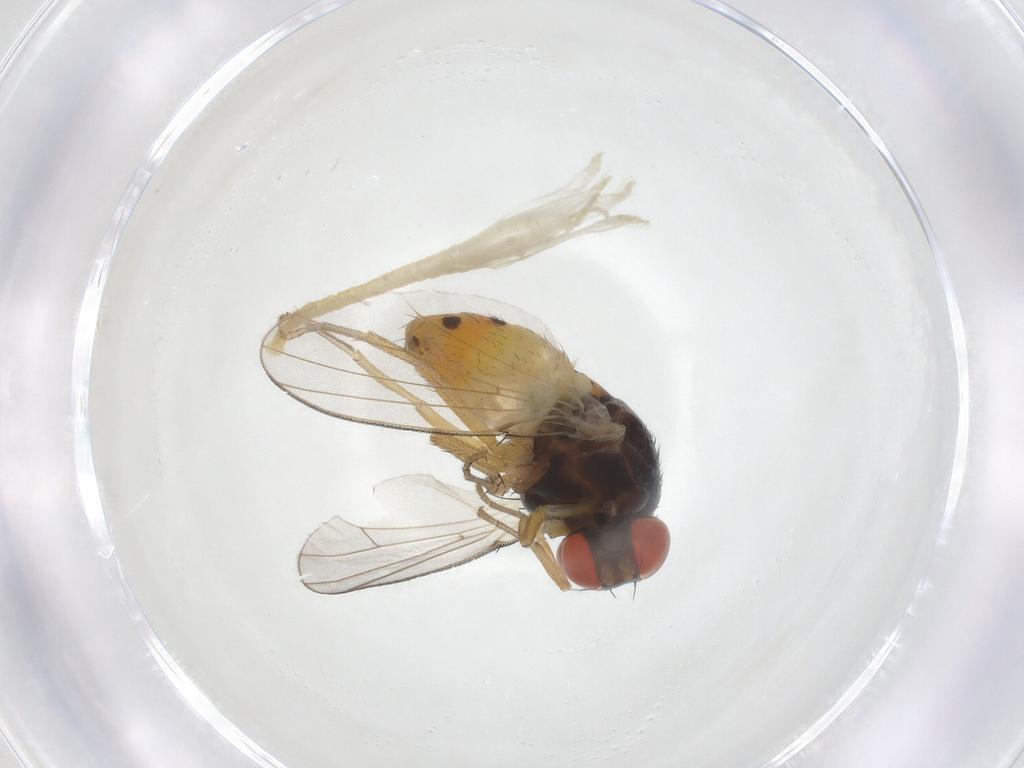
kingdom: Animalia
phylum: Arthropoda
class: Insecta
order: Diptera
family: Drosophilidae
